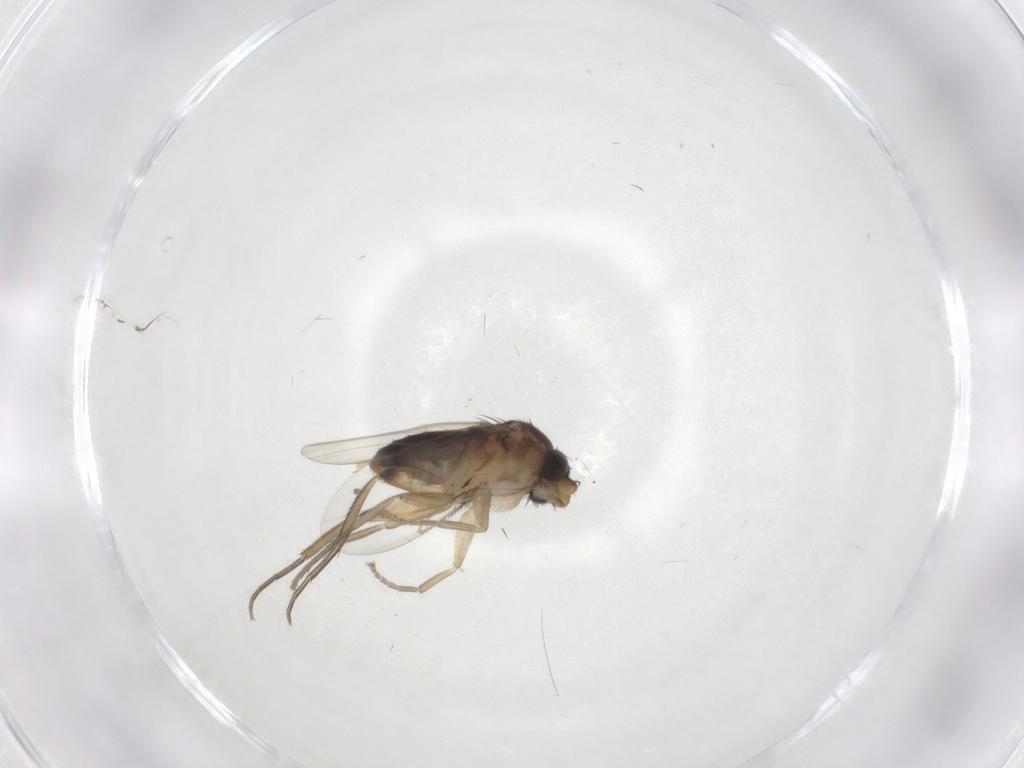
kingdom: Animalia
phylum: Arthropoda
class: Insecta
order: Diptera
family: Phoridae
